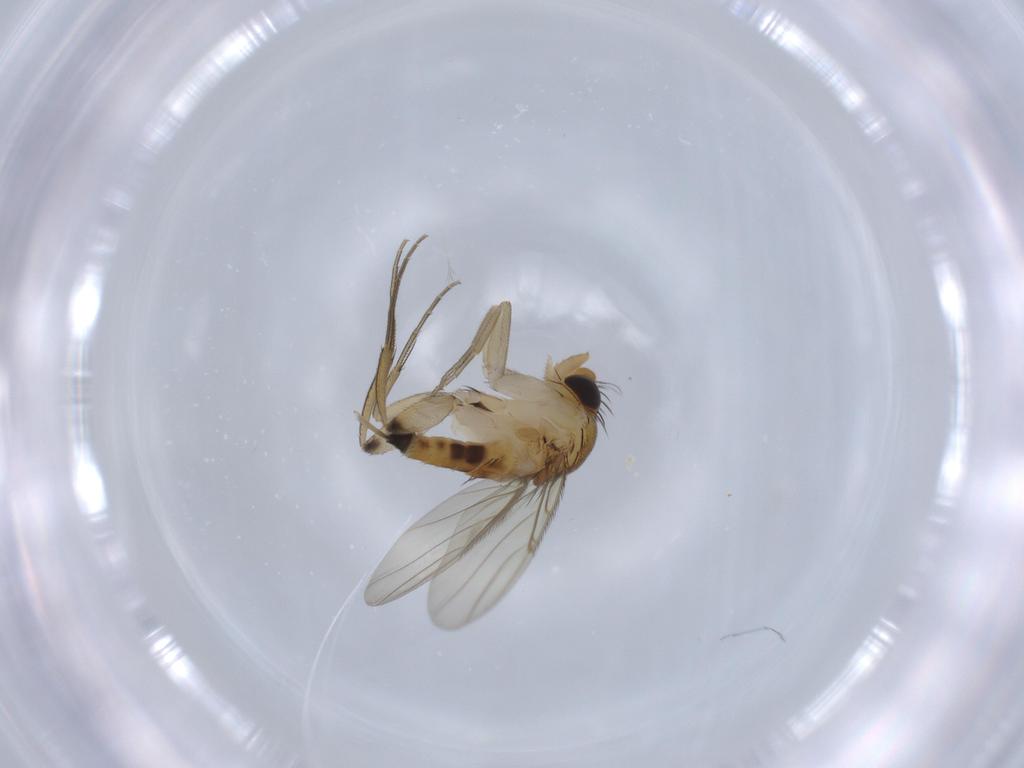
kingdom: Animalia
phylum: Arthropoda
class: Insecta
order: Diptera
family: Phoridae
